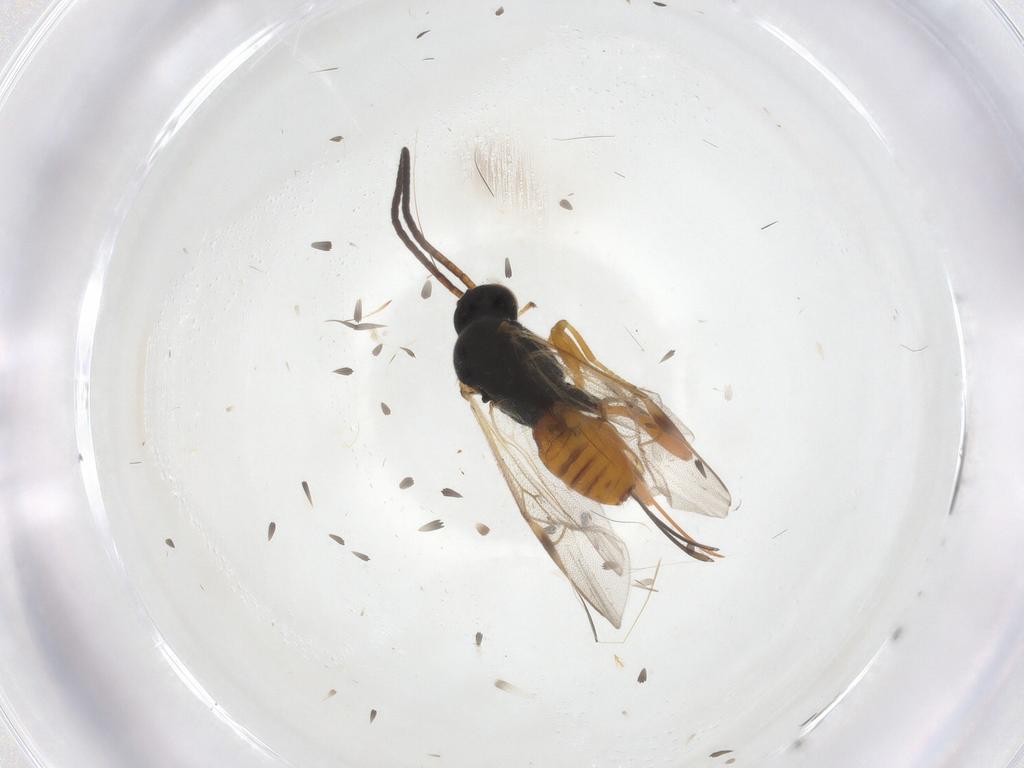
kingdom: Animalia
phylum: Arthropoda
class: Insecta
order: Hymenoptera
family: Braconidae
